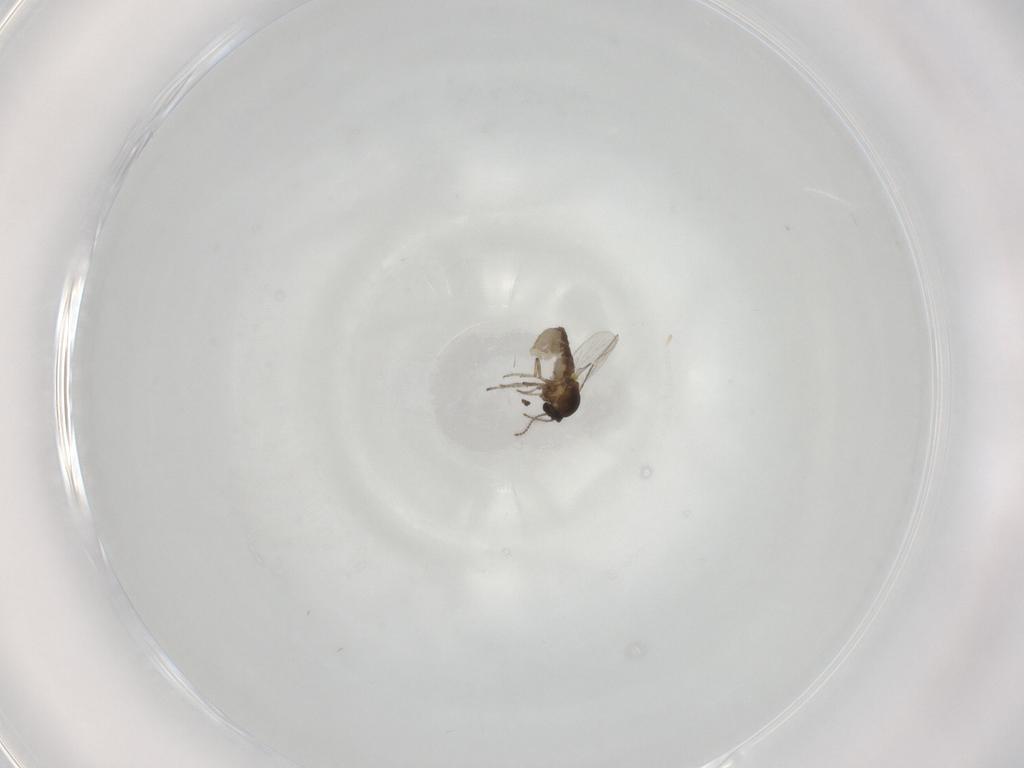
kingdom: Animalia
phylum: Arthropoda
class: Insecta
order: Diptera
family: Ceratopogonidae
